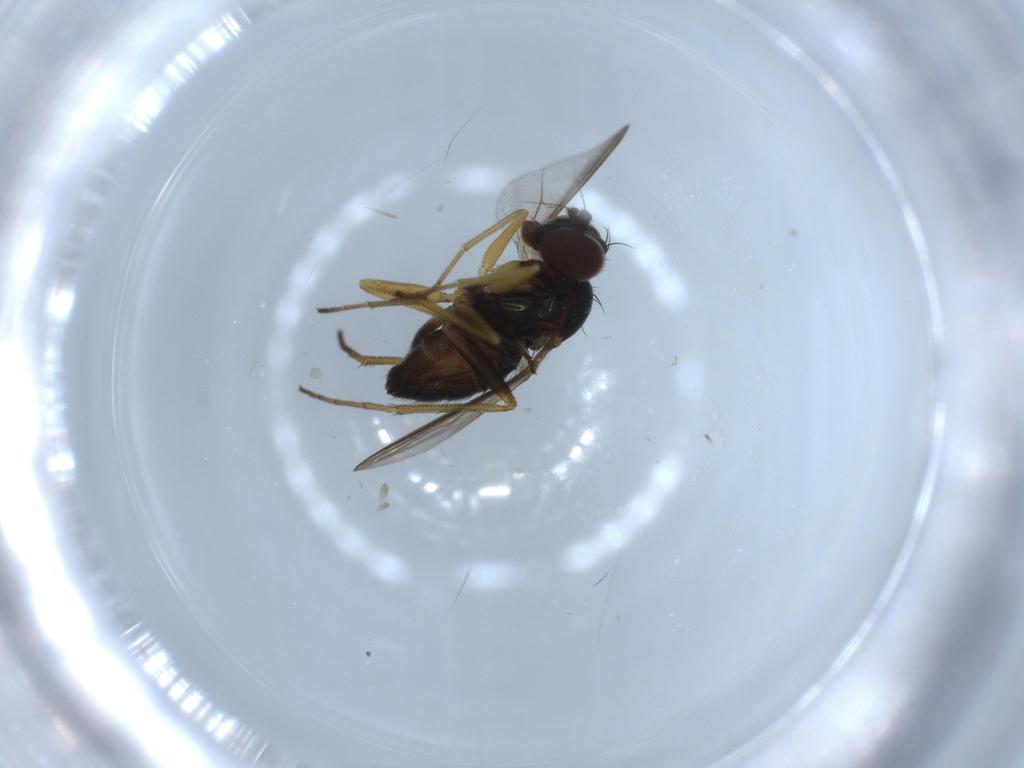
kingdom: Animalia
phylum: Arthropoda
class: Insecta
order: Diptera
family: Dolichopodidae
